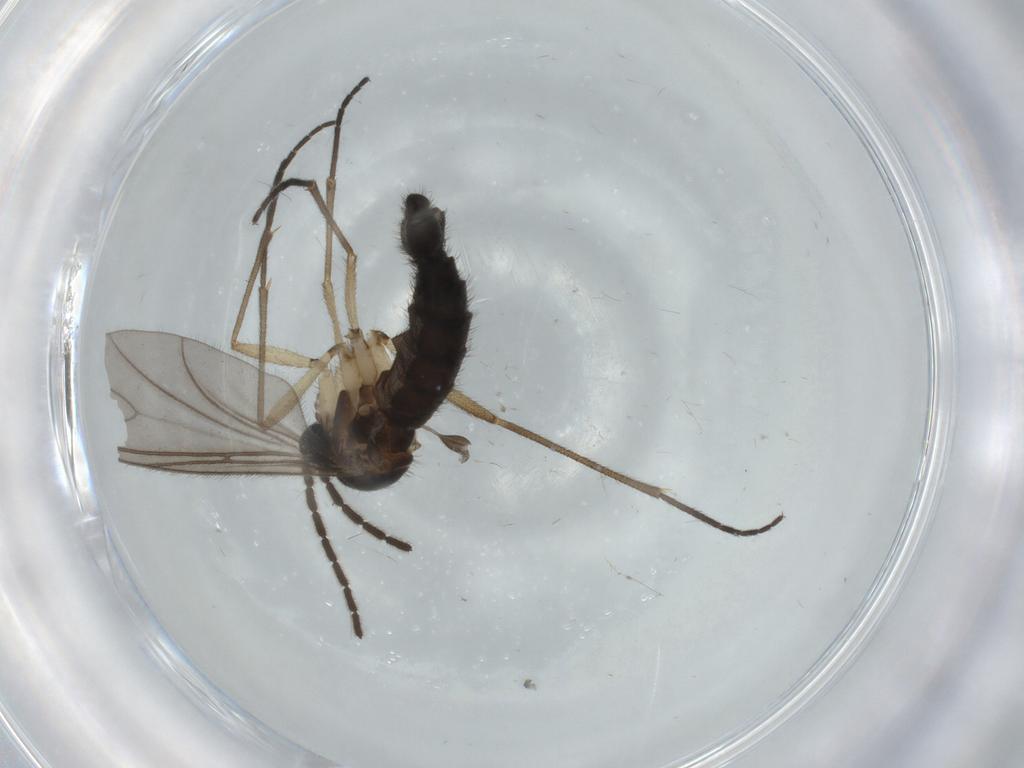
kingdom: Animalia
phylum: Arthropoda
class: Insecta
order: Diptera
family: Sciaridae
